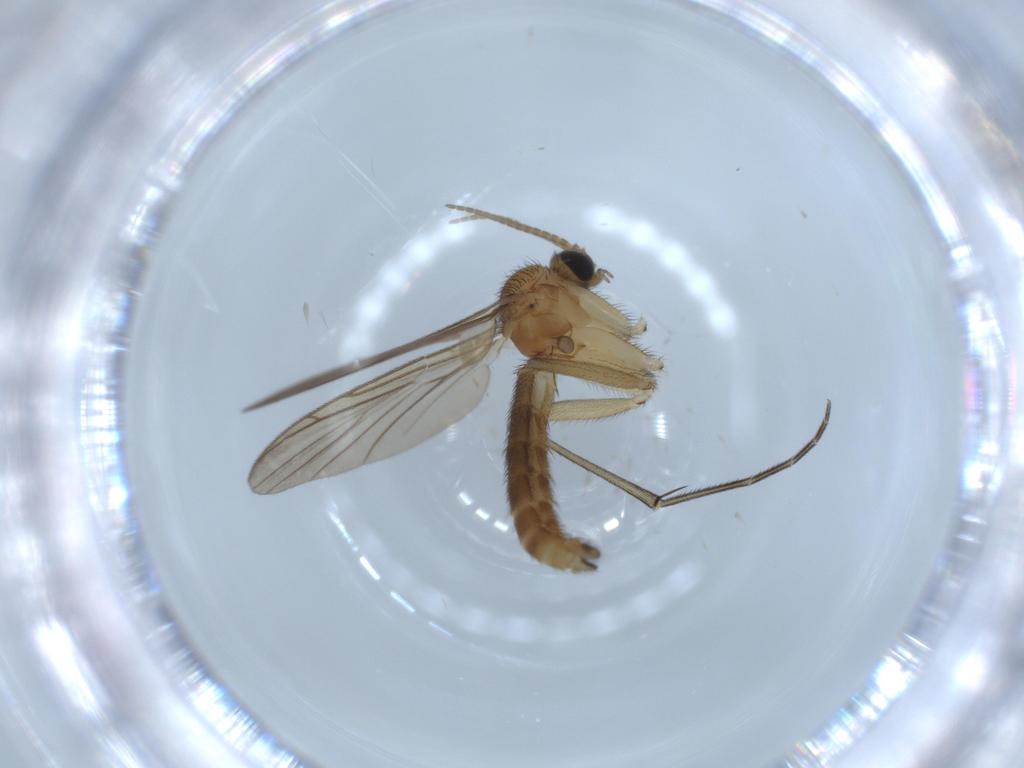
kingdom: Animalia
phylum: Arthropoda
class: Insecta
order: Diptera
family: Keroplatidae
